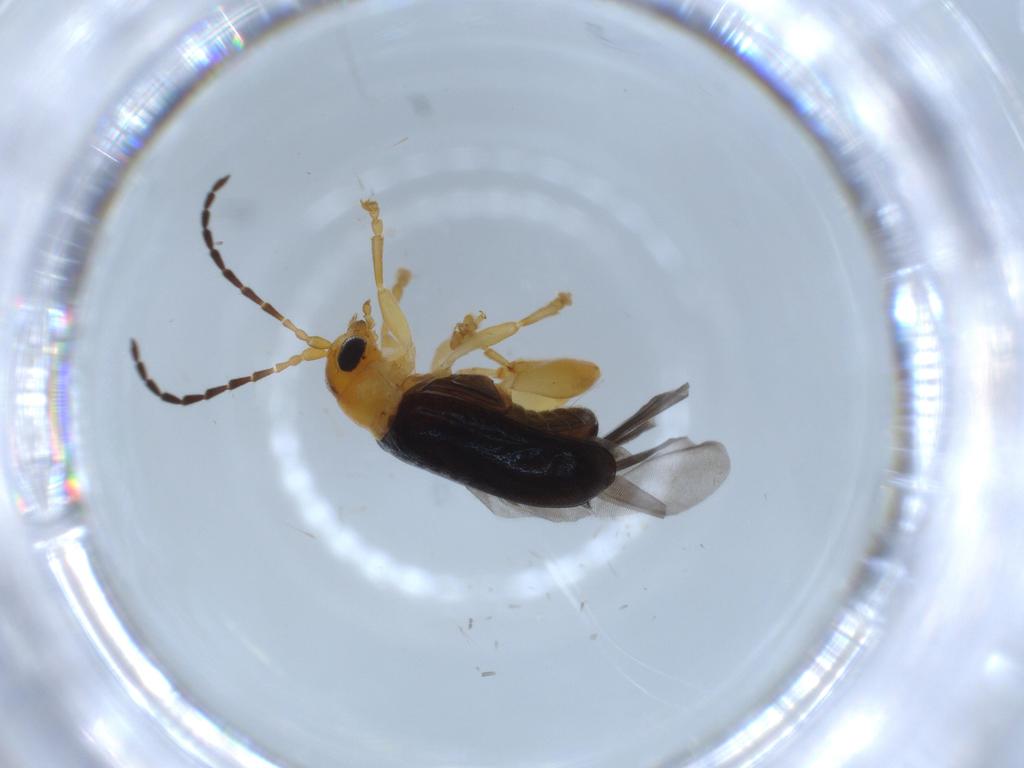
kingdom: Animalia
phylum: Arthropoda
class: Insecta
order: Coleoptera
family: Chrysomelidae
